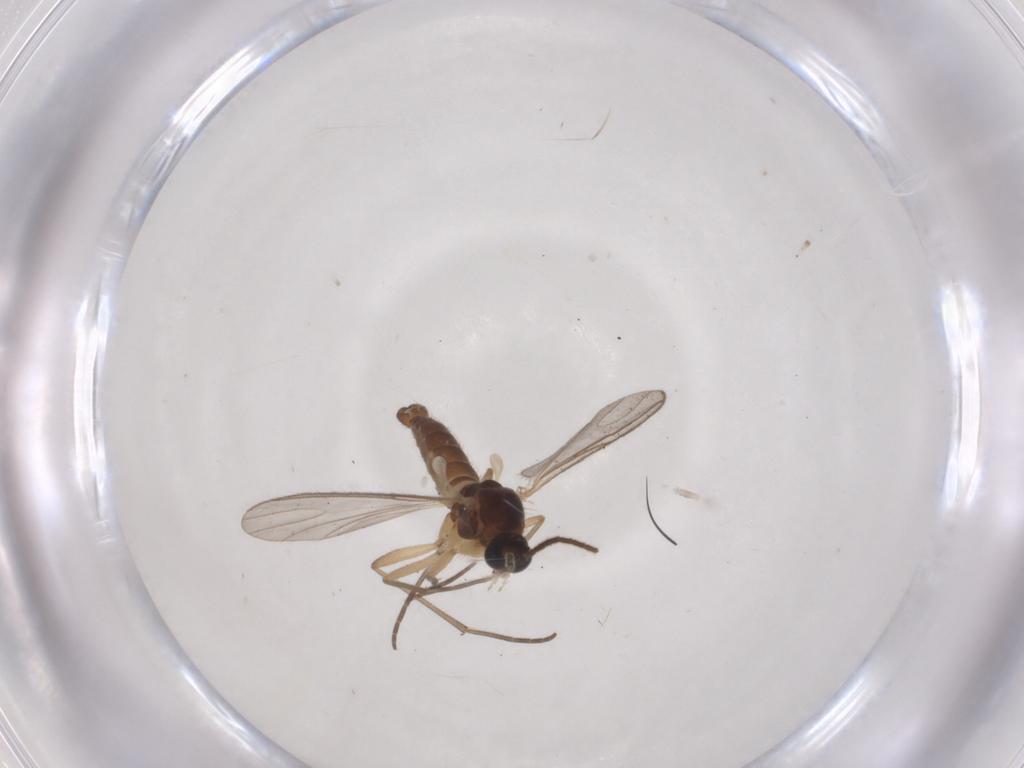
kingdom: Animalia
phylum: Arthropoda
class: Insecta
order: Diptera
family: Sciaridae
